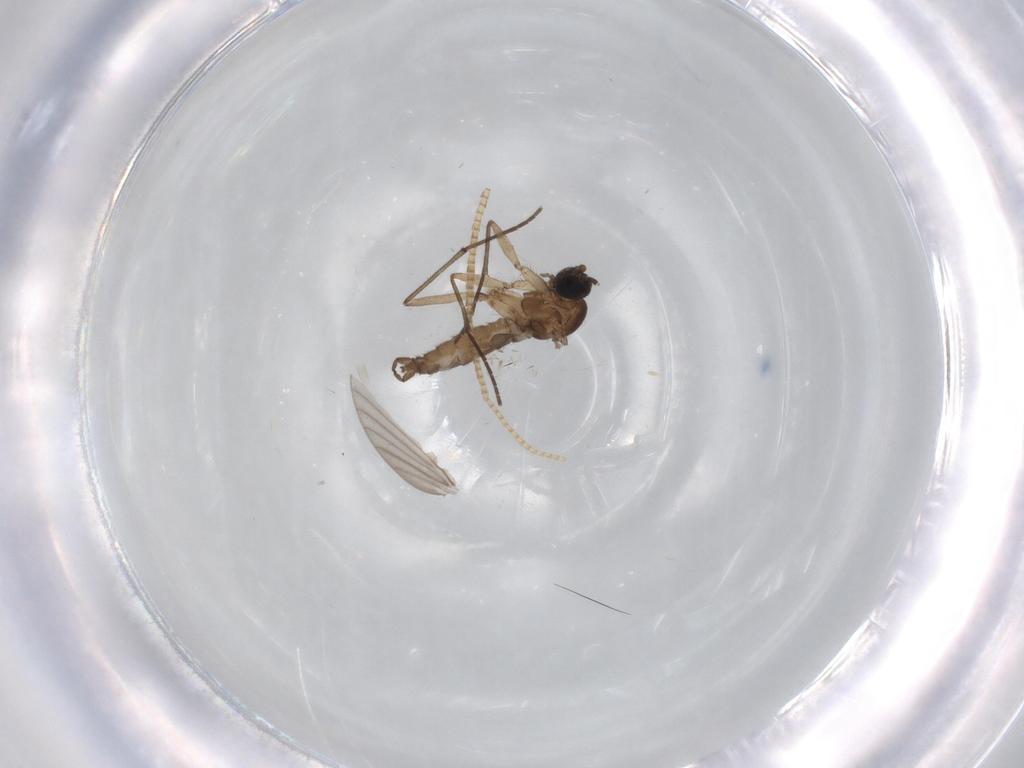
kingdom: Animalia
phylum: Arthropoda
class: Insecta
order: Diptera
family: Sciaridae
